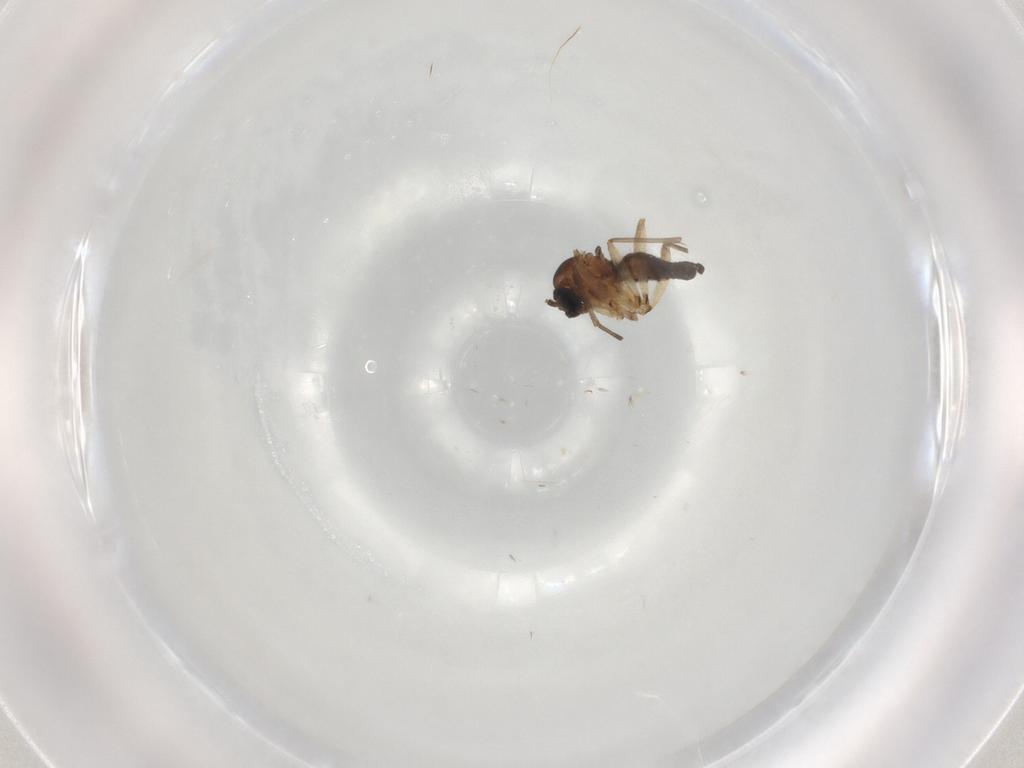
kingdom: Animalia
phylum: Arthropoda
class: Insecta
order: Diptera
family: Sciaridae
